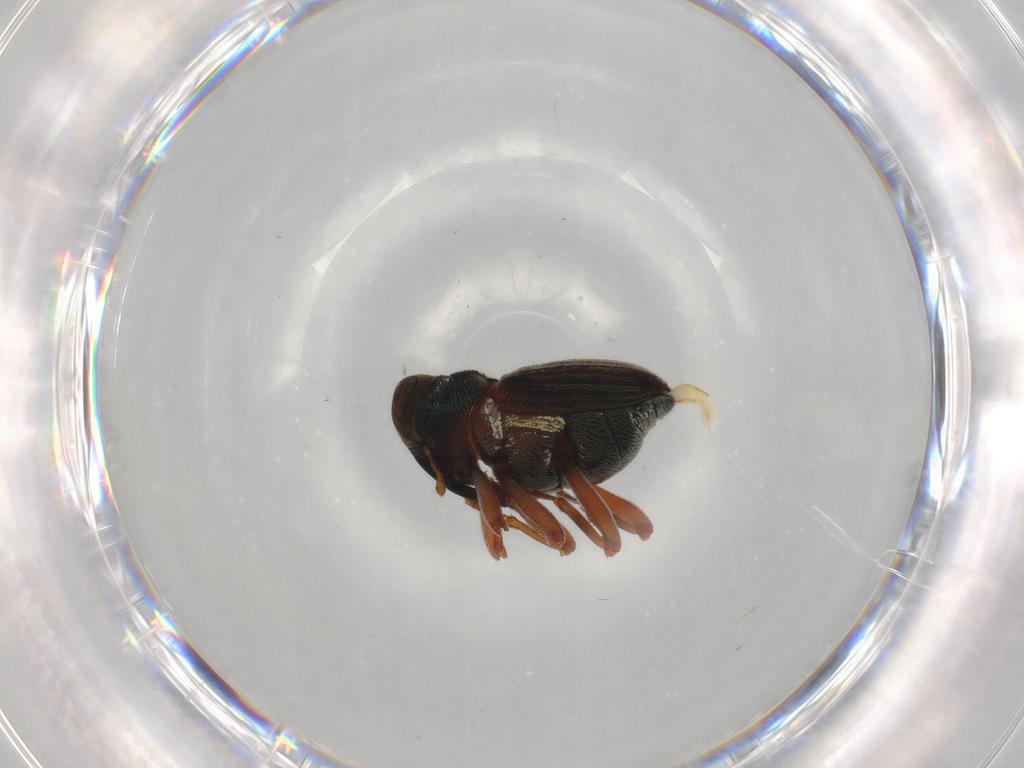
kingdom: Animalia
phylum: Arthropoda
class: Insecta
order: Coleoptera
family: Curculionidae
